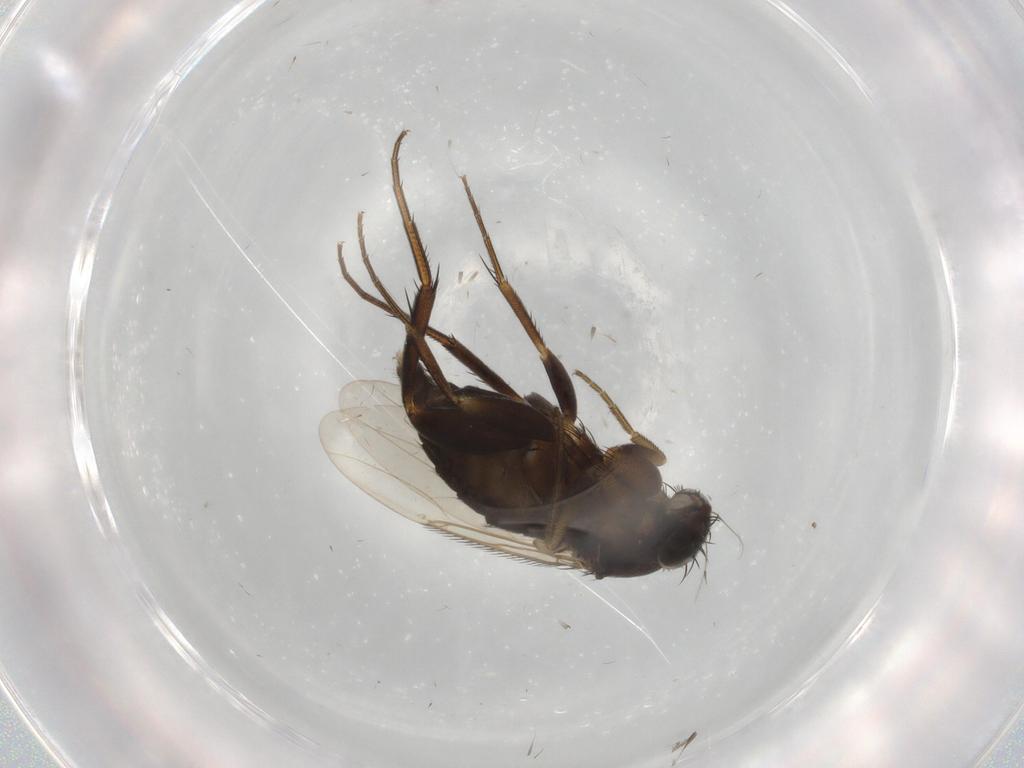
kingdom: Animalia
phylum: Arthropoda
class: Insecta
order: Diptera
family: Phoridae
